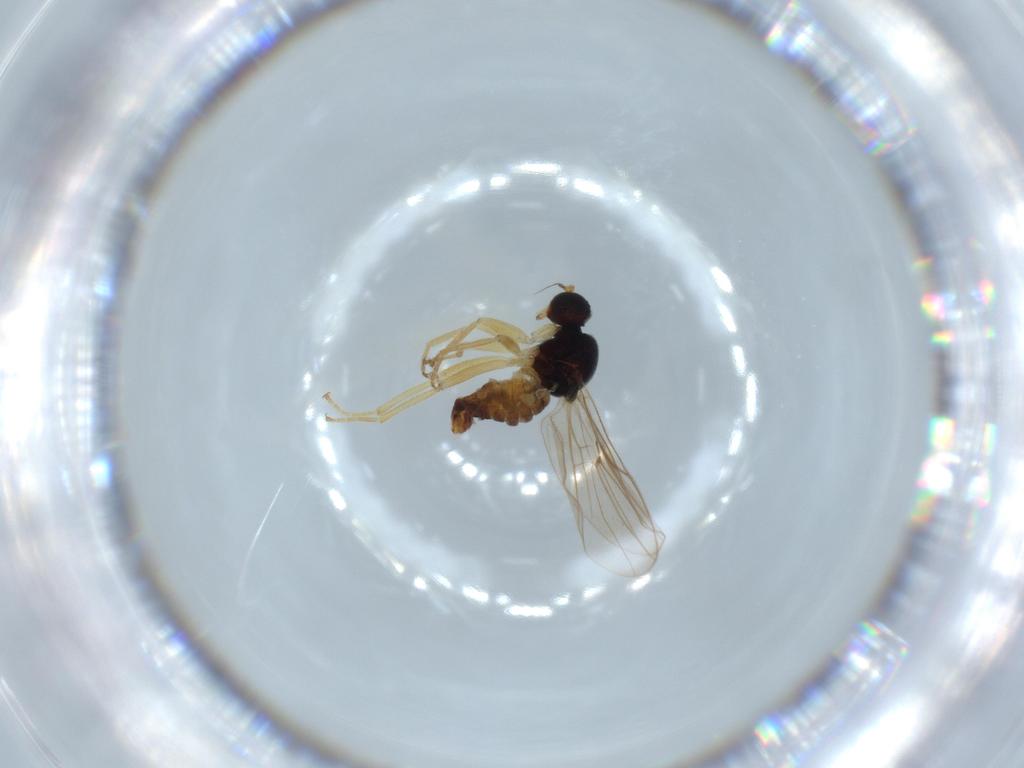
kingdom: Animalia
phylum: Arthropoda
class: Insecta
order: Diptera
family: Hybotidae
